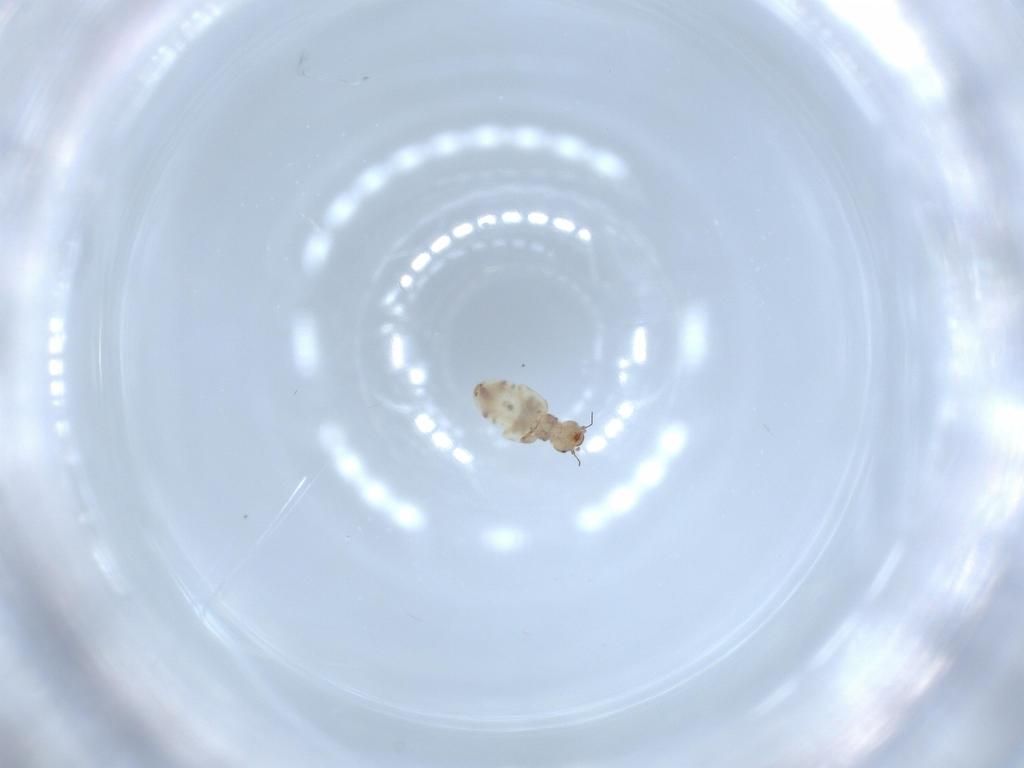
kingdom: Animalia
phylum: Arthropoda
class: Insecta
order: Psocodea
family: Liposcelididae
